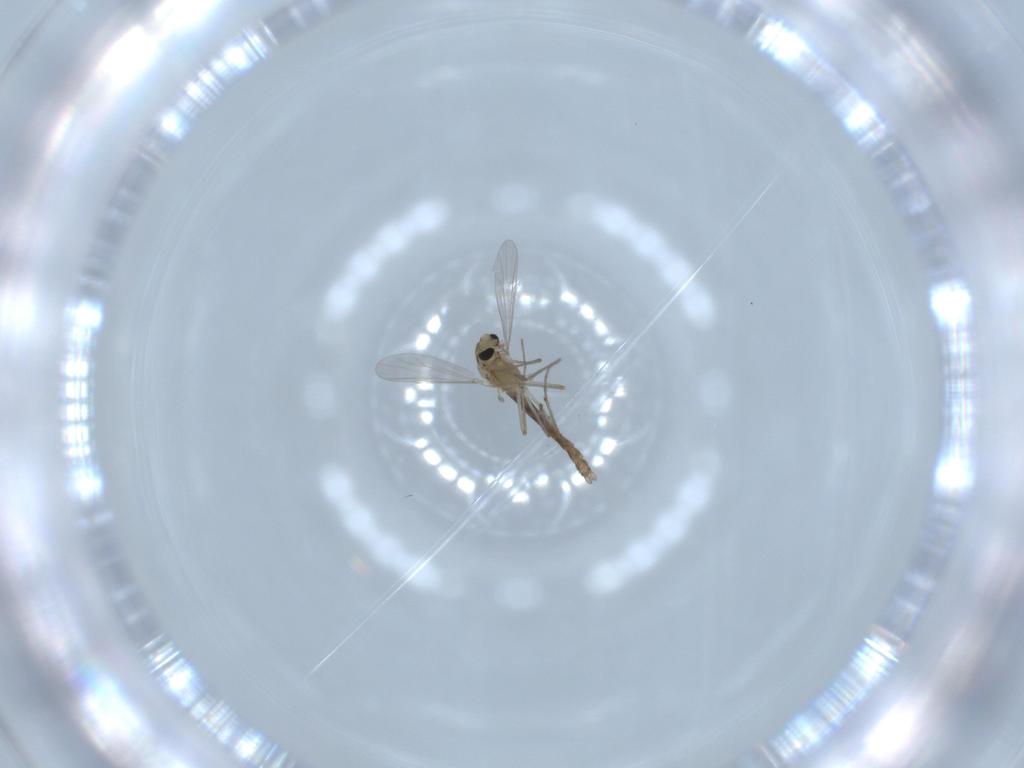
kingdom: Animalia
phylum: Arthropoda
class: Insecta
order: Diptera
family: Chironomidae
